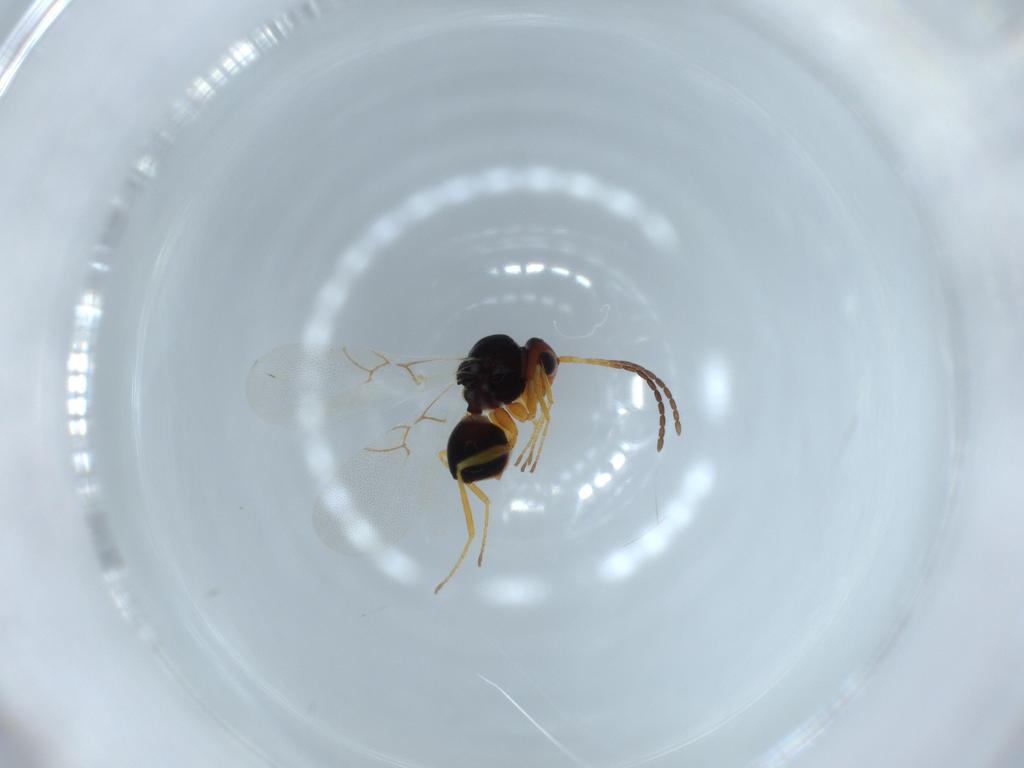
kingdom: Animalia
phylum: Arthropoda
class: Insecta
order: Hymenoptera
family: Figitidae
